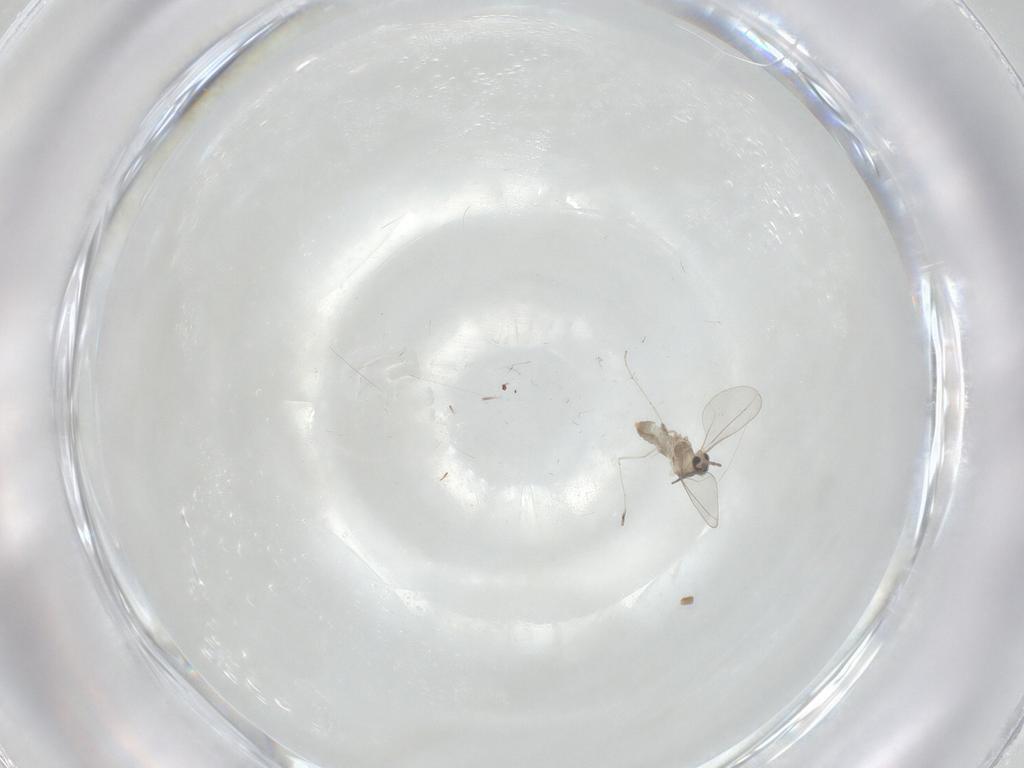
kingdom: Animalia
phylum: Arthropoda
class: Insecta
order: Diptera
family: Cecidomyiidae
